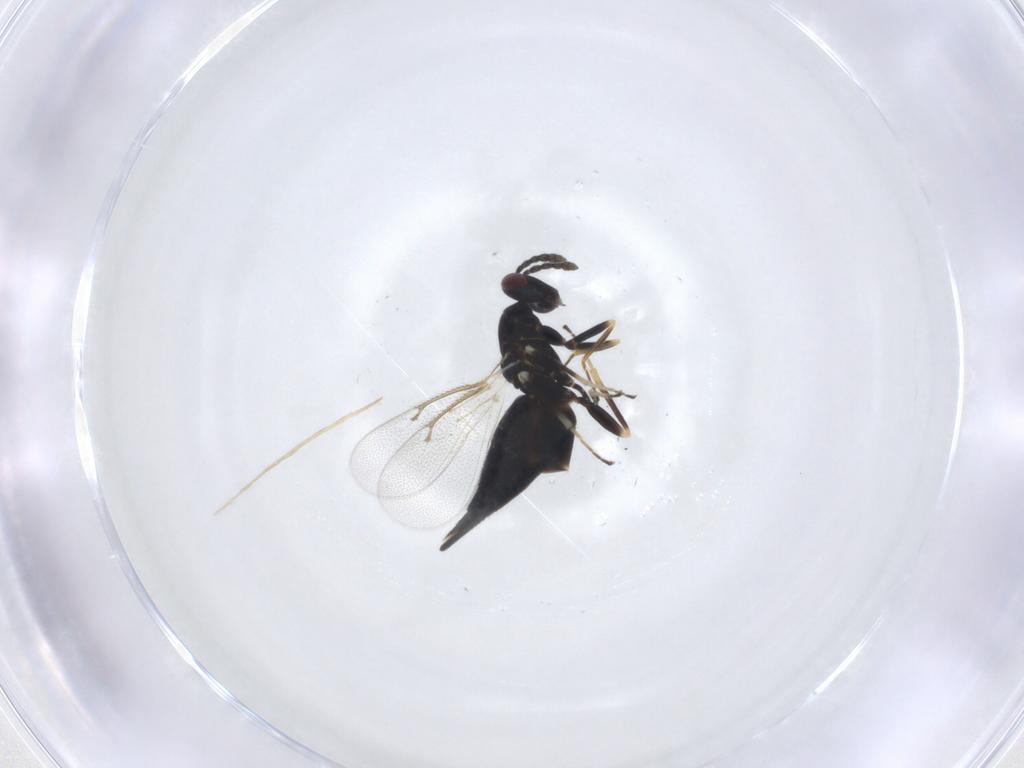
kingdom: Animalia
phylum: Arthropoda
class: Insecta
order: Hymenoptera
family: Eulophidae
